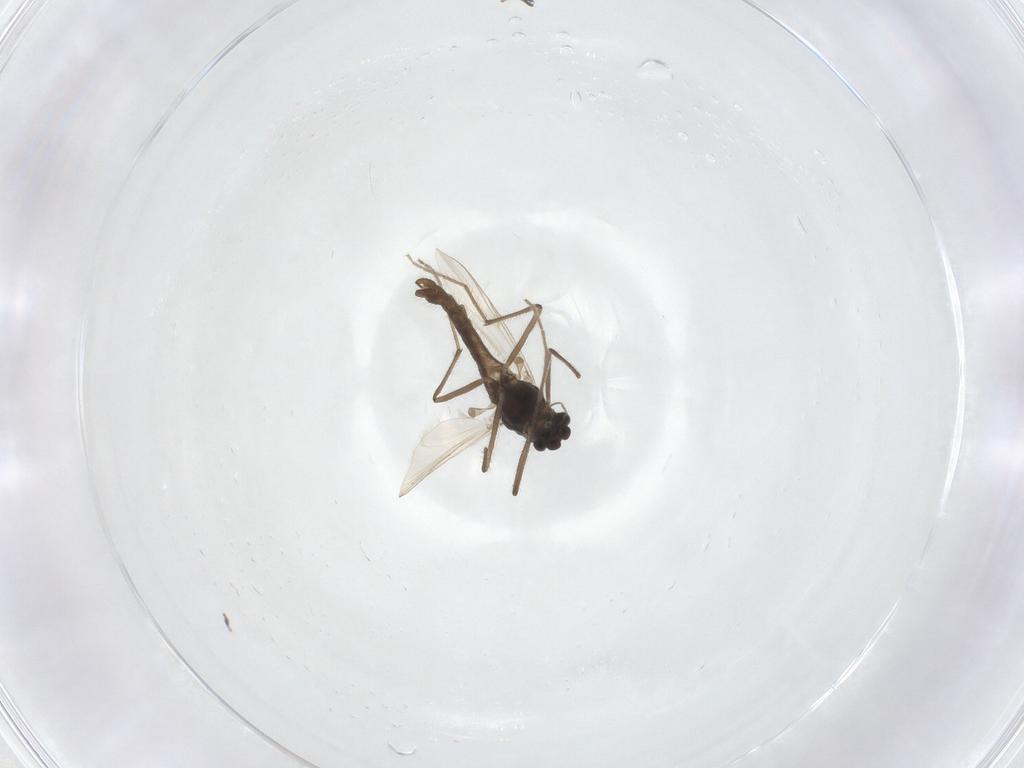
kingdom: Animalia
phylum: Arthropoda
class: Insecta
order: Diptera
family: Chironomidae
